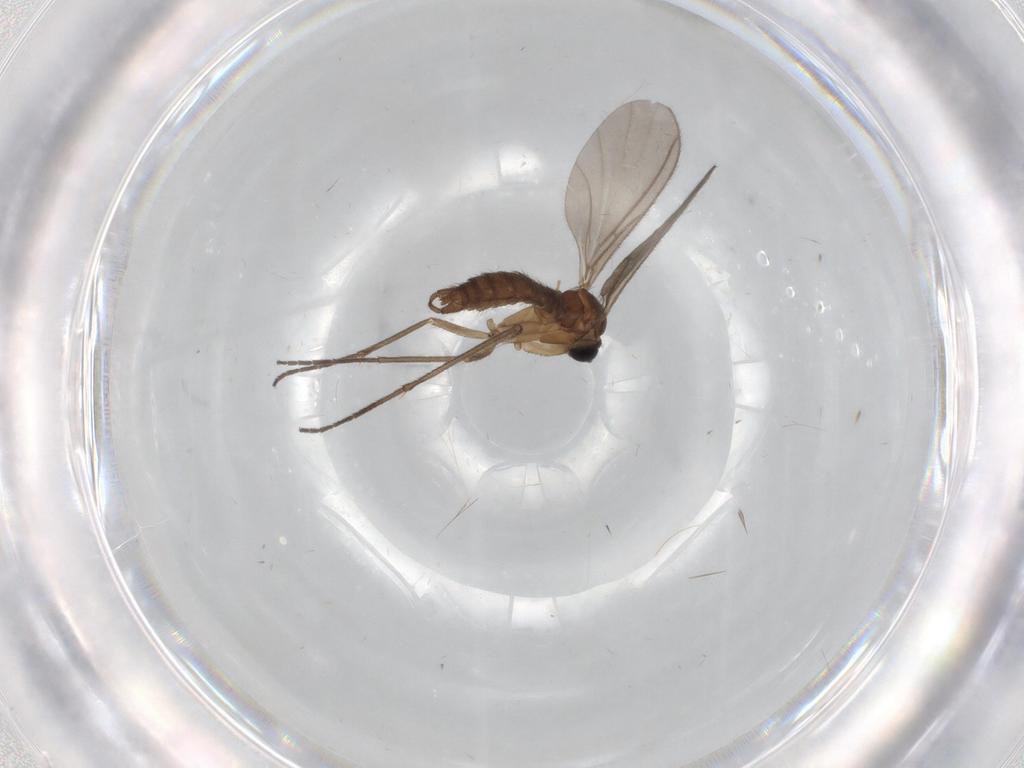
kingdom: Animalia
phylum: Arthropoda
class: Insecta
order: Diptera
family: Sciaridae
